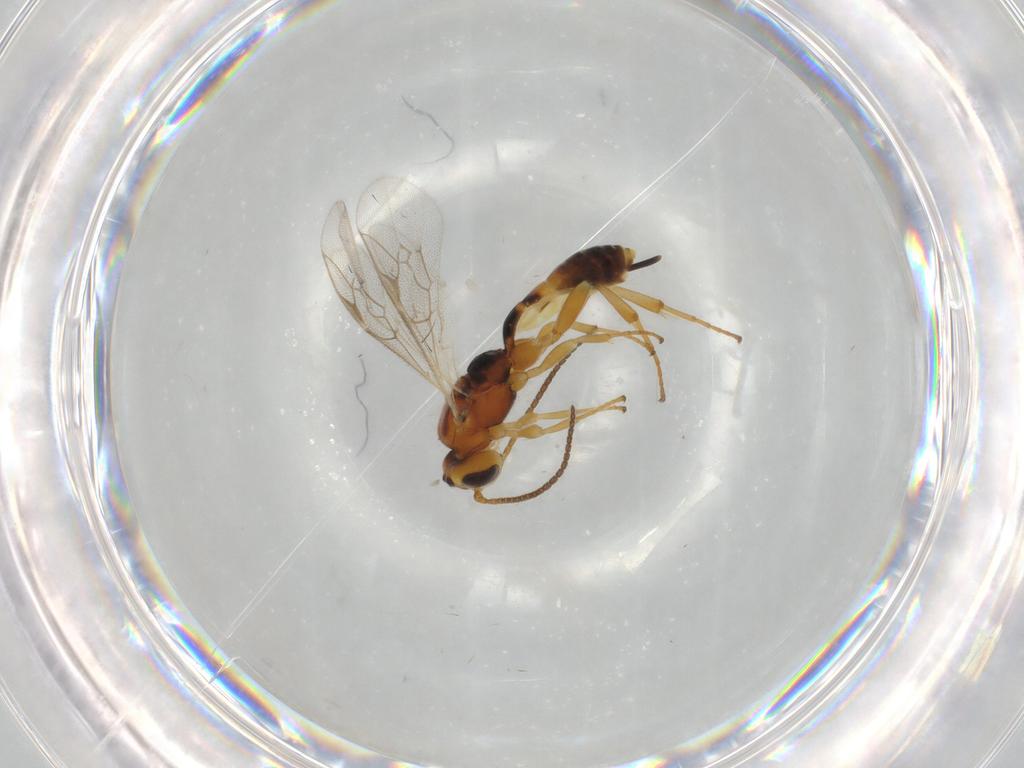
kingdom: Animalia
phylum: Arthropoda
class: Insecta
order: Hymenoptera
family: Ichneumonidae
